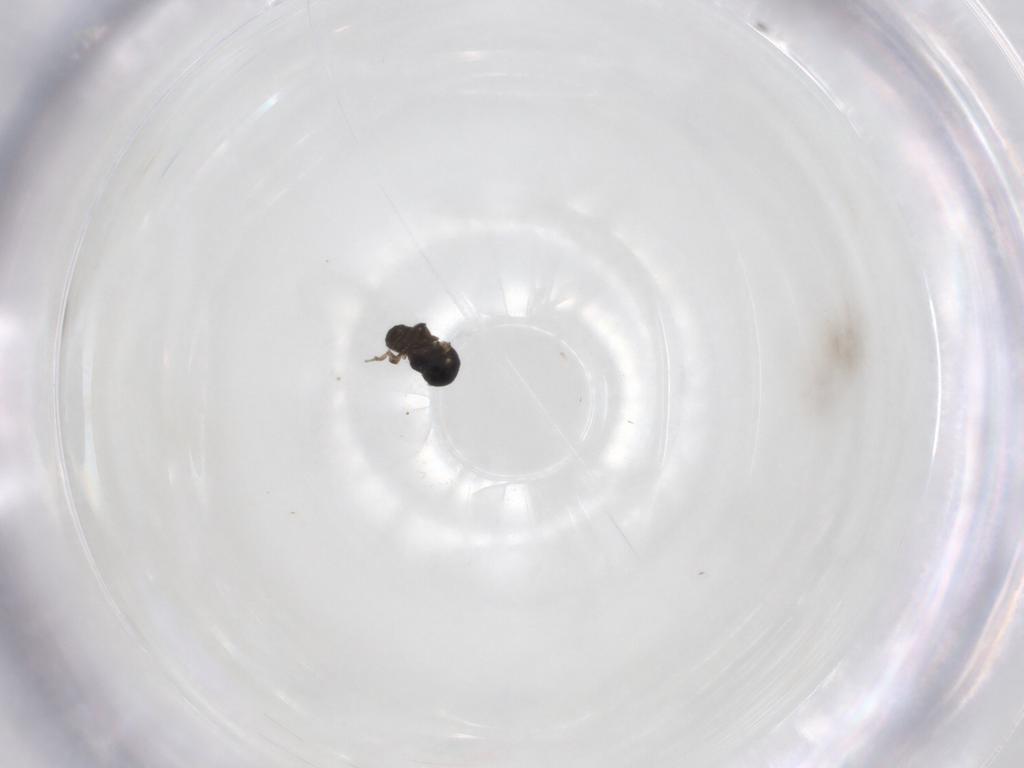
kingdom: Animalia
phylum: Arthropoda
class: Insecta
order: Diptera
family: Ceratopogonidae
